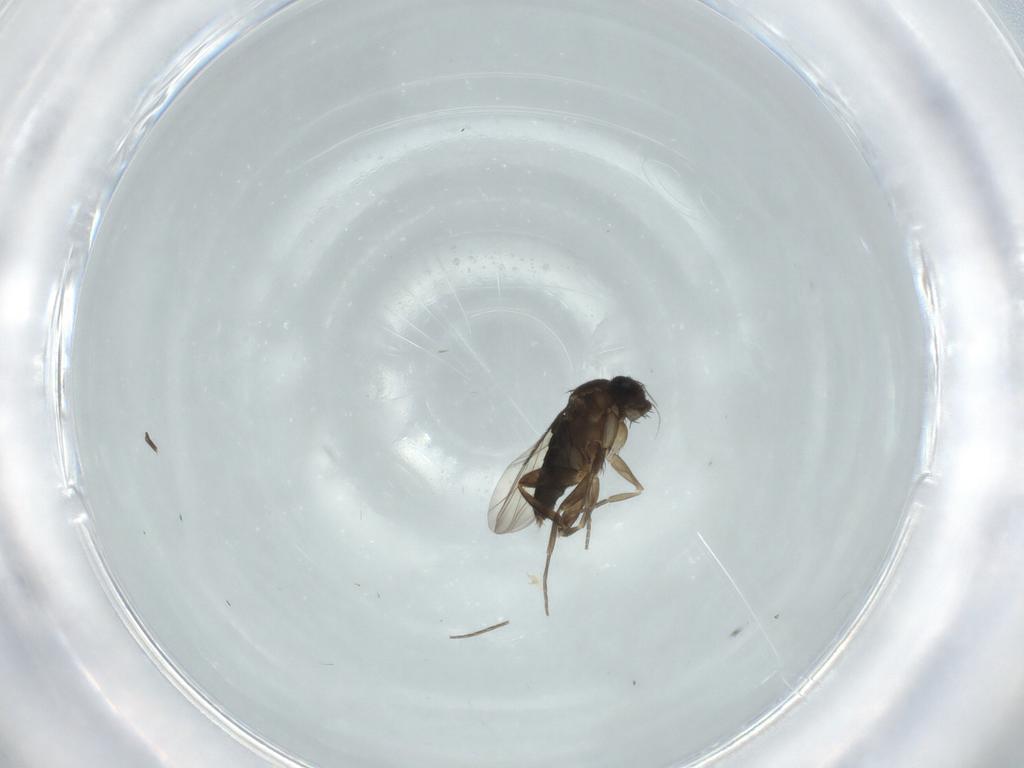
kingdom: Animalia
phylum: Arthropoda
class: Insecta
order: Diptera
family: Phoridae
